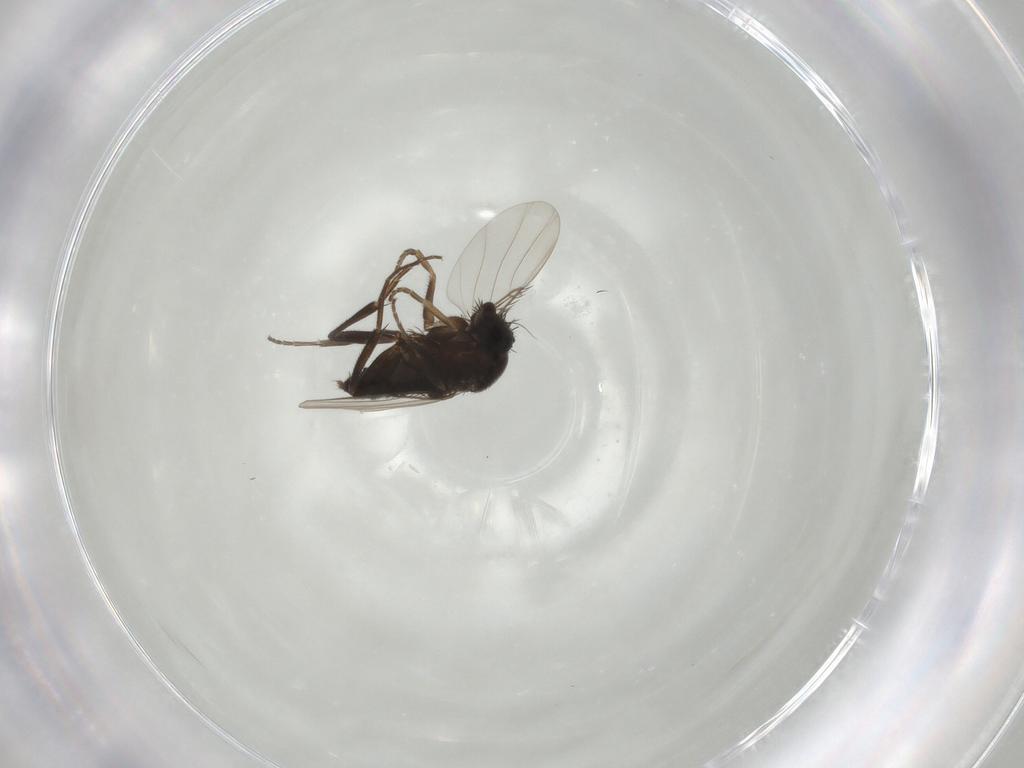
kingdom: Animalia
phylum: Arthropoda
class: Insecta
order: Diptera
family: Phoridae
